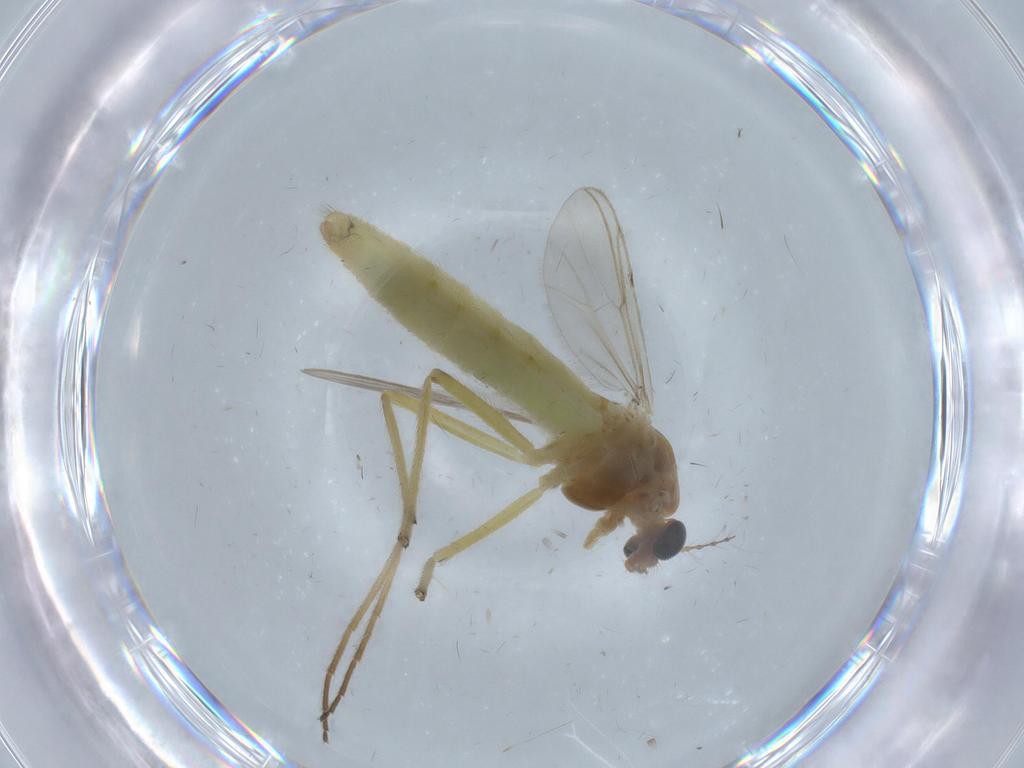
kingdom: Animalia
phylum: Arthropoda
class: Insecta
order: Diptera
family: Chironomidae
